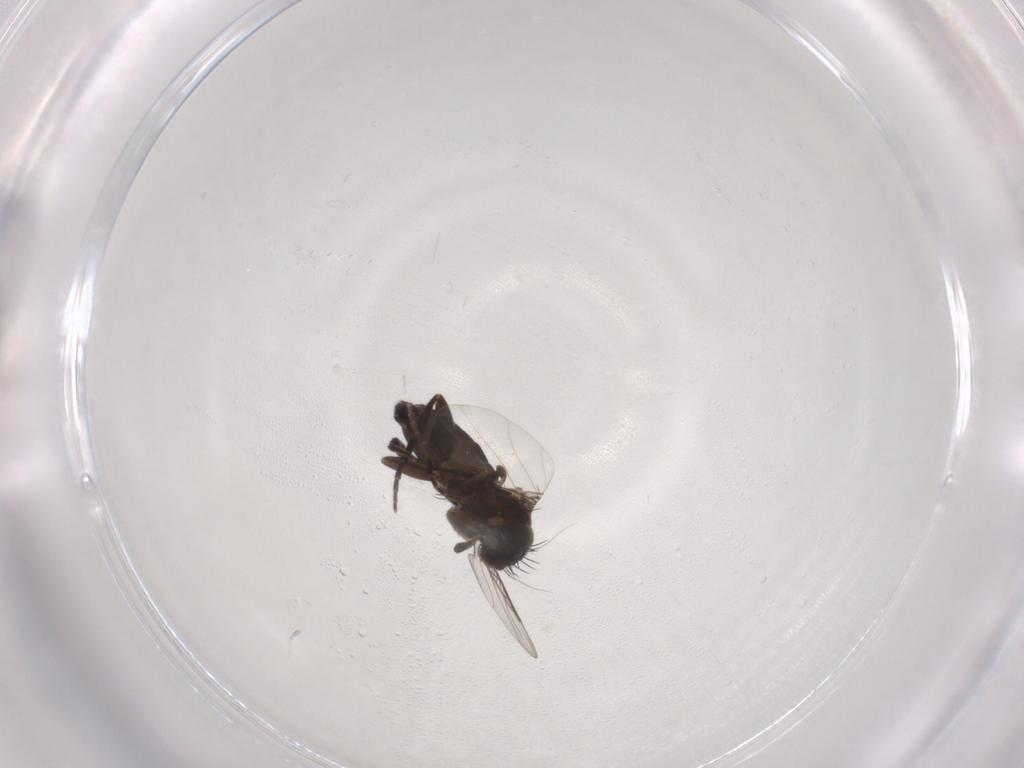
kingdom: Animalia
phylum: Arthropoda
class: Insecta
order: Diptera
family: Phoridae
